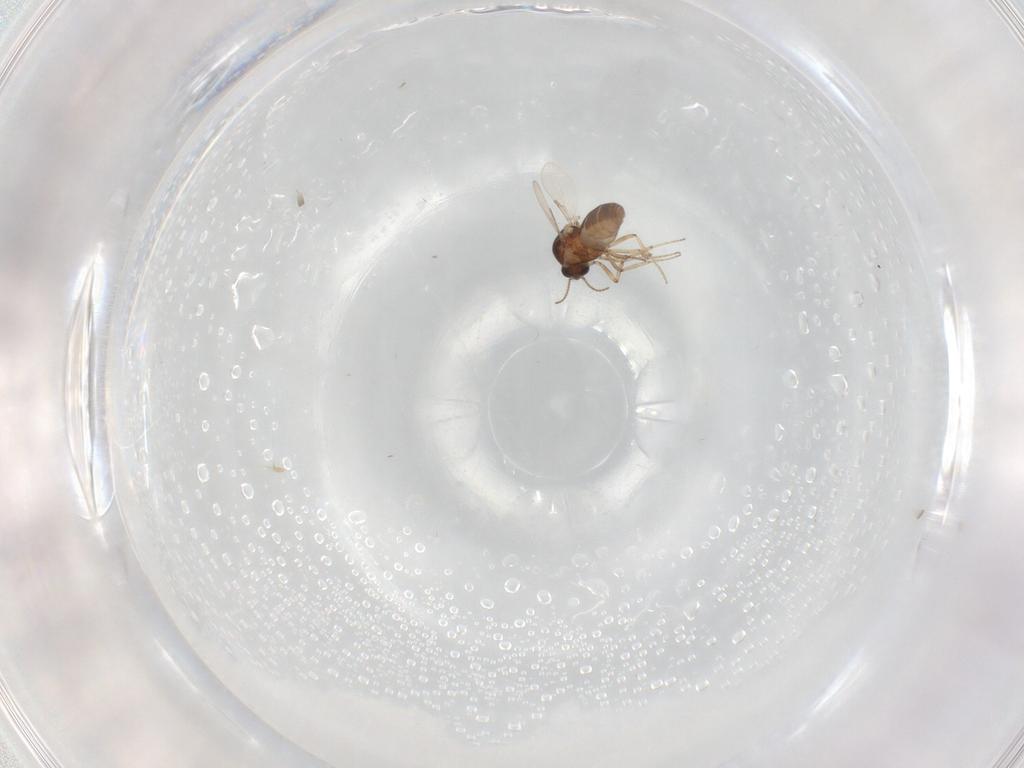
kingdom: Animalia
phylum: Arthropoda
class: Insecta
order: Diptera
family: Ceratopogonidae
